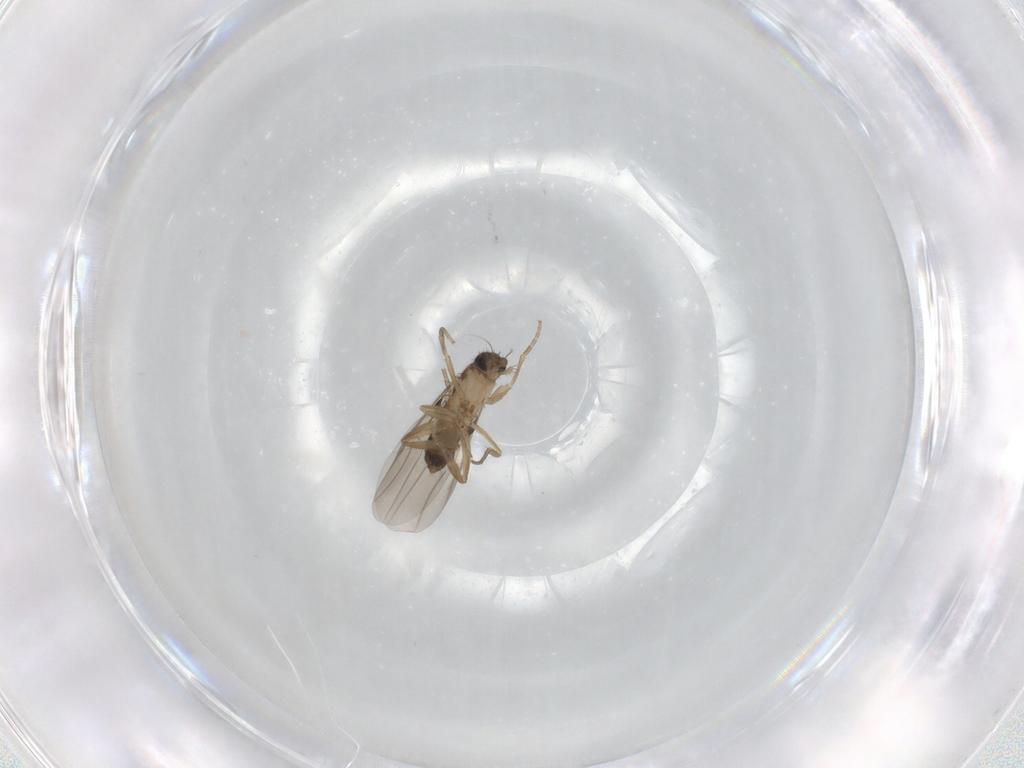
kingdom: Animalia
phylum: Arthropoda
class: Insecta
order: Diptera
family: Phoridae
